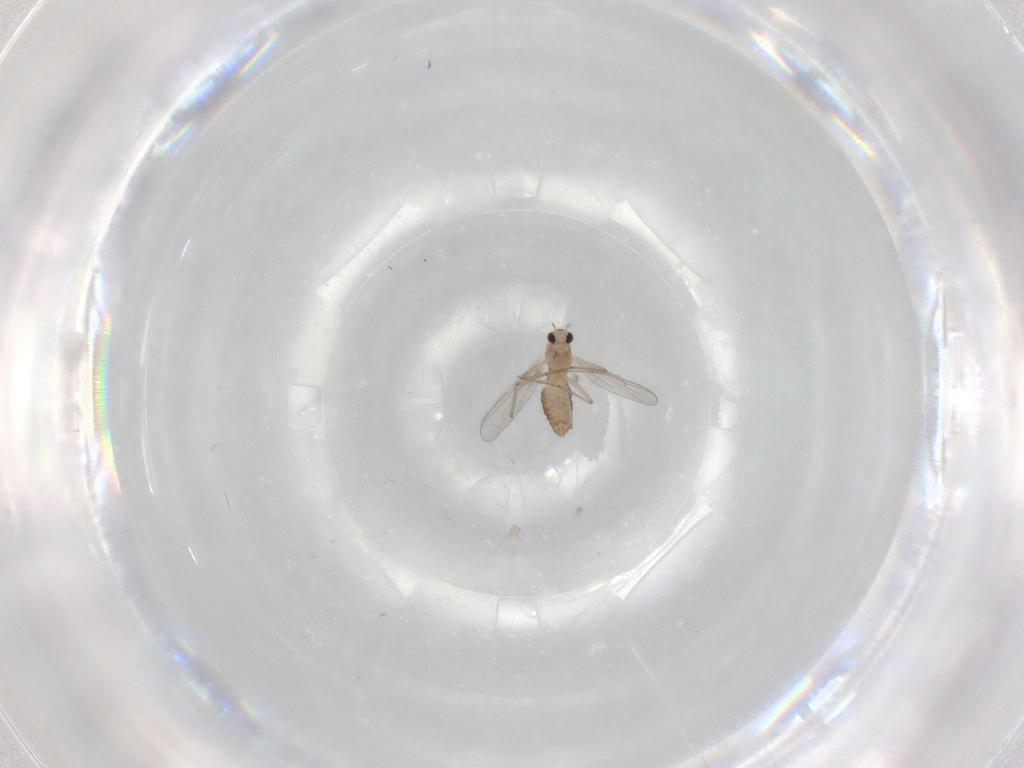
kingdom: Animalia
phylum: Arthropoda
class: Insecta
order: Diptera
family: Chironomidae
